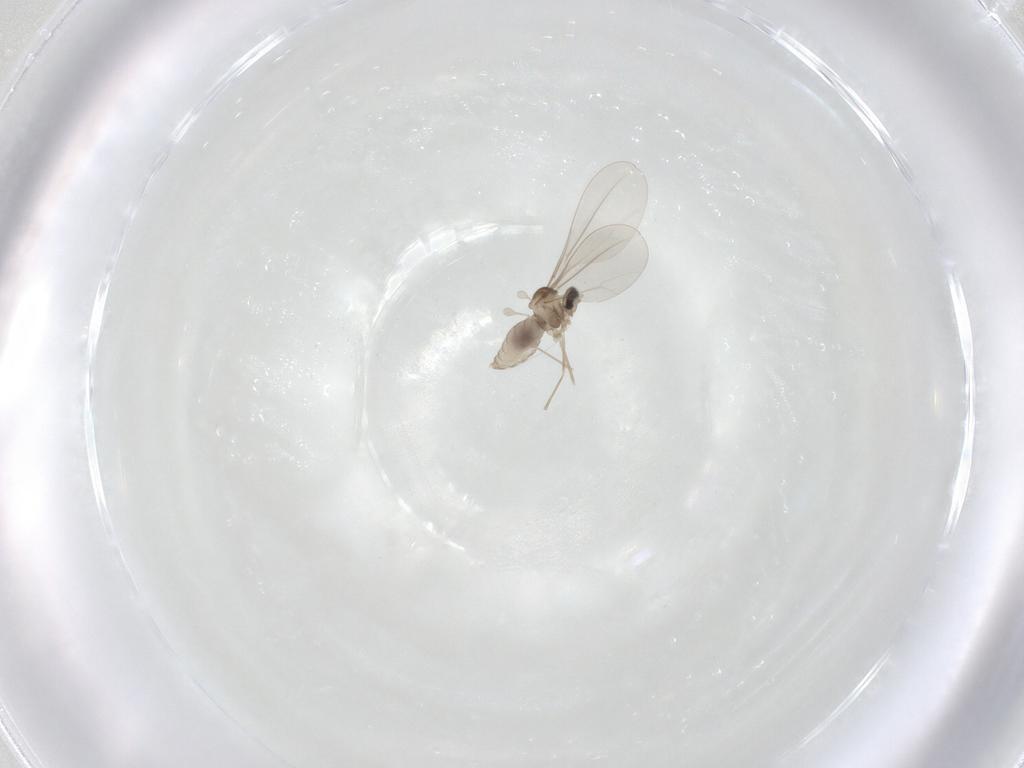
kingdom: Animalia
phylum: Arthropoda
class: Insecta
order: Diptera
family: Cecidomyiidae
